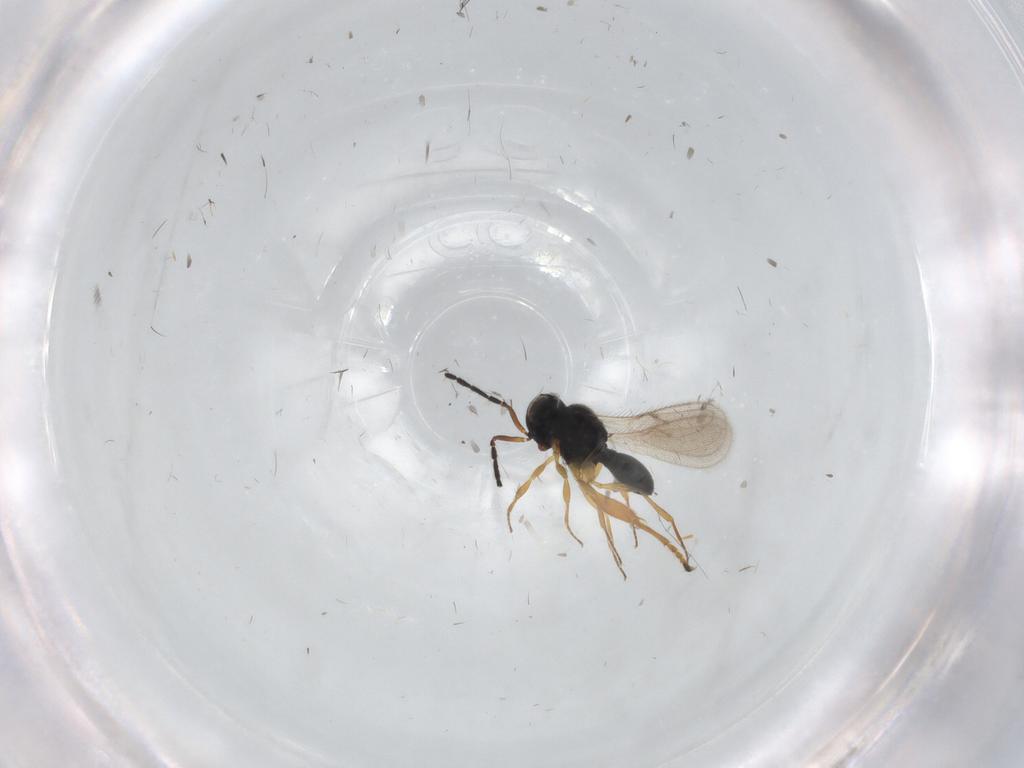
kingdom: Animalia
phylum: Arthropoda
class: Insecta
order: Hymenoptera
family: Scelionidae
